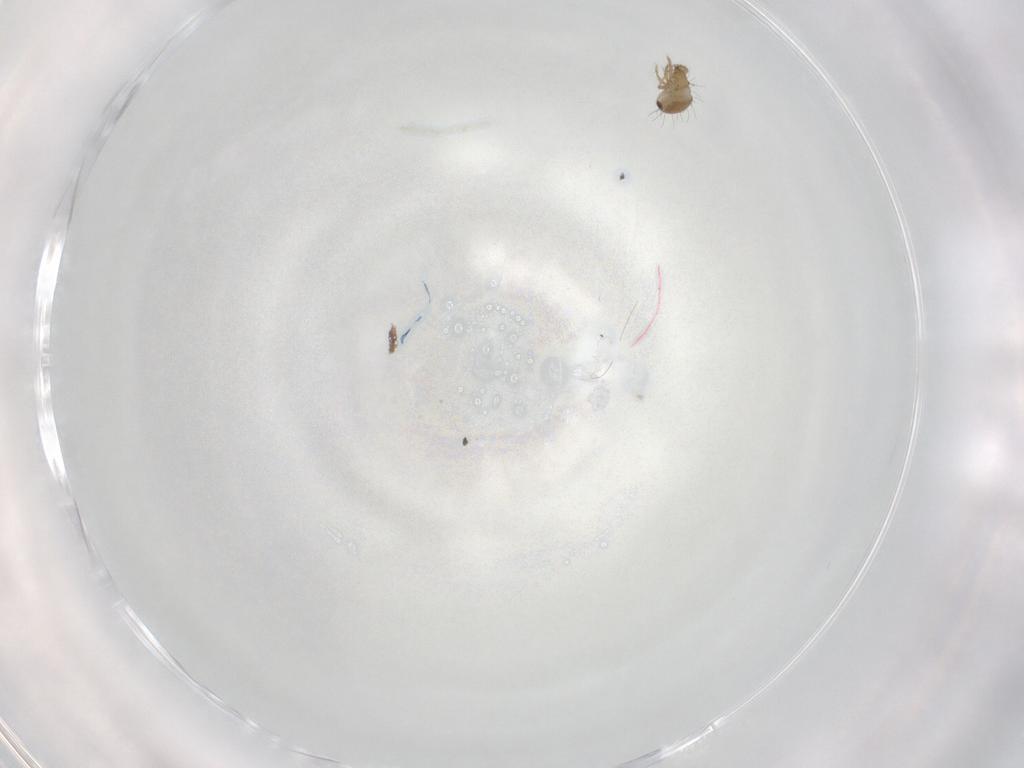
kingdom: Animalia
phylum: Arthropoda
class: Arachnida
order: Sarcoptiformes
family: Humerobatidae
